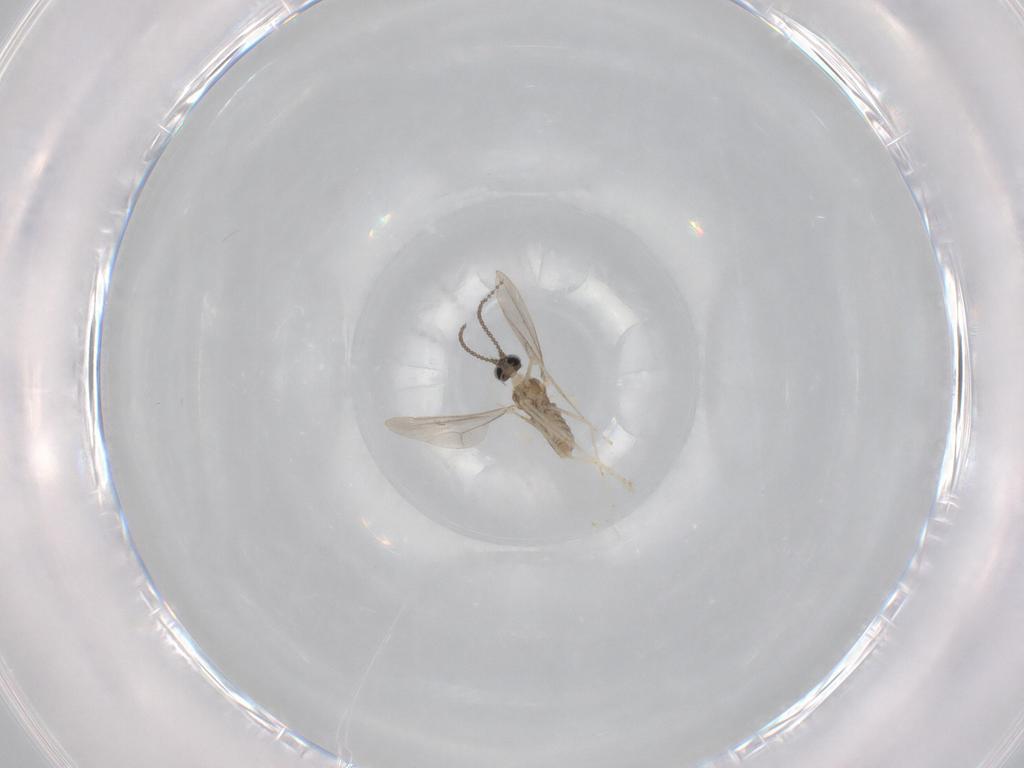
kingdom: Animalia
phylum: Arthropoda
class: Insecta
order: Diptera
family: Cecidomyiidae
